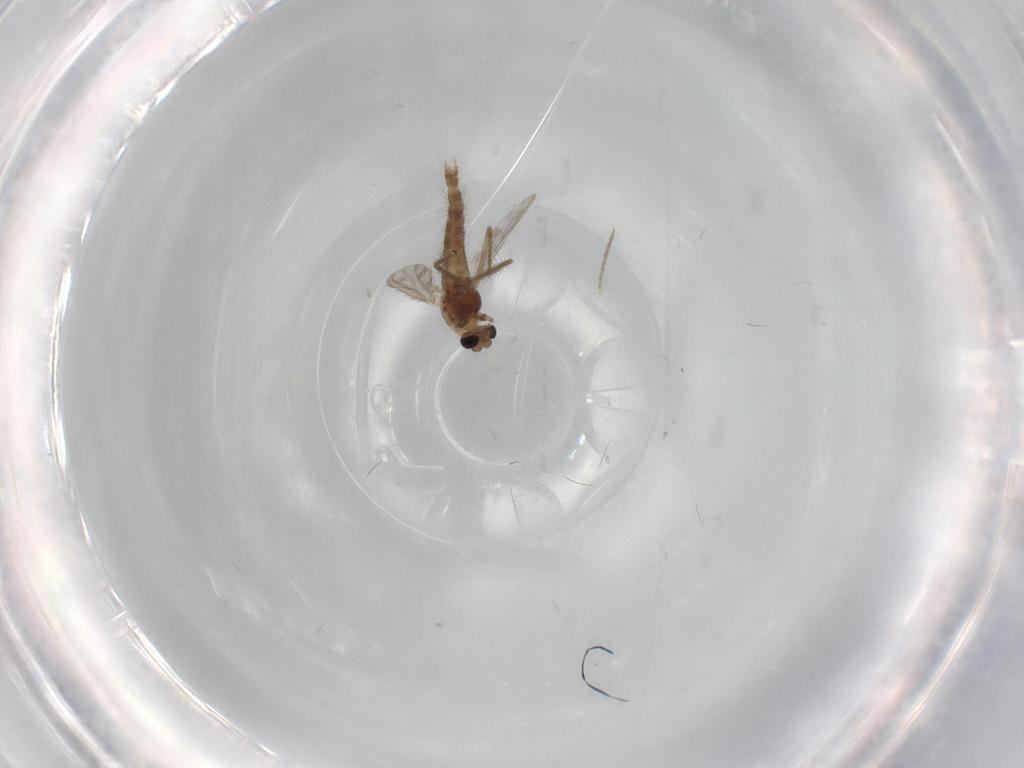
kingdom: Animalia
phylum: Arthropoda
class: Insecta
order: Diptera
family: Chironomidae
